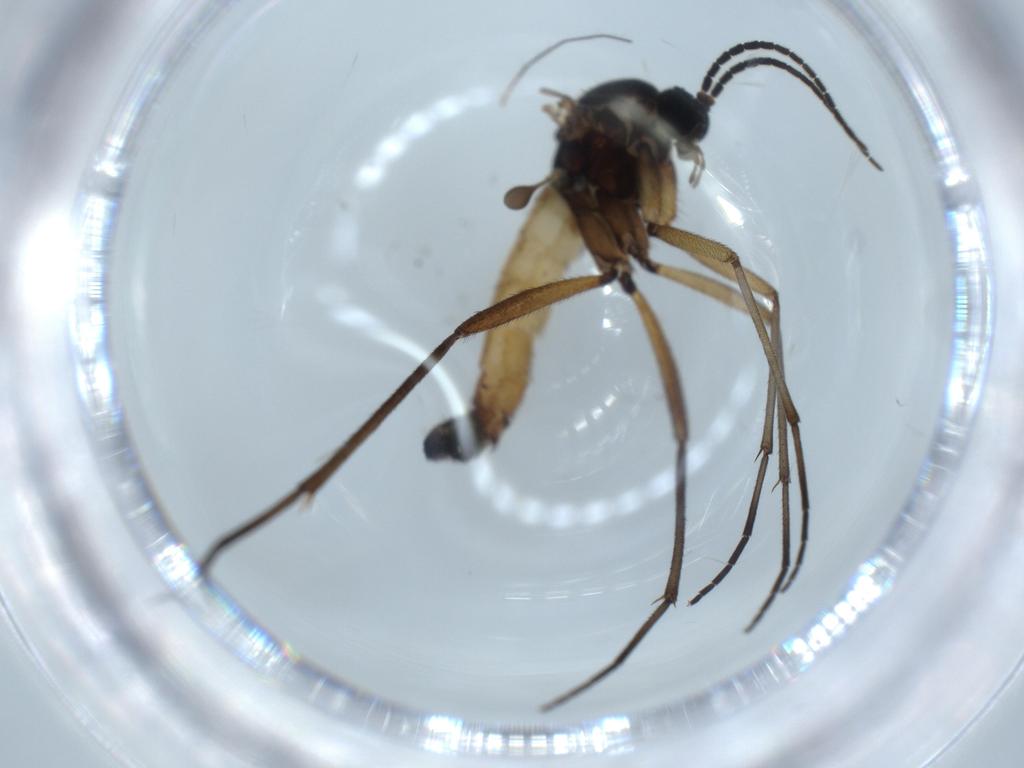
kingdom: Animalia
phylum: Arthropoda
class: Insecta
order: Diptera
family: Sciaridae
